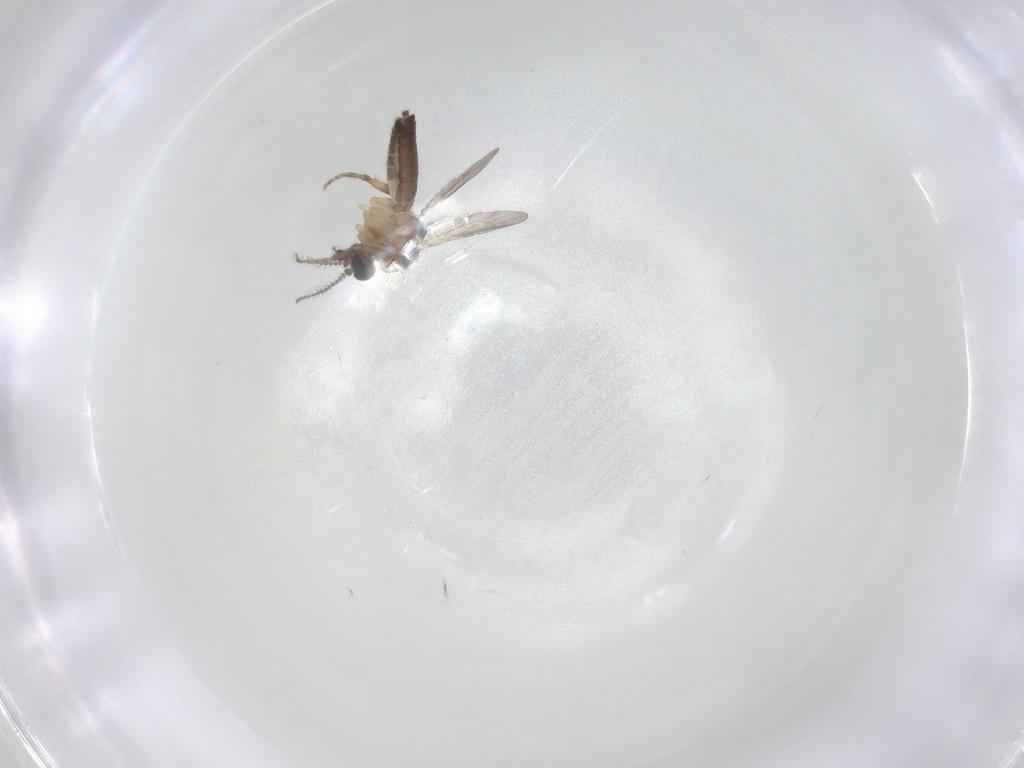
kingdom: Animalia
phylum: Arthropoda
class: Insecta
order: Diptera
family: Ceratopogonidae
